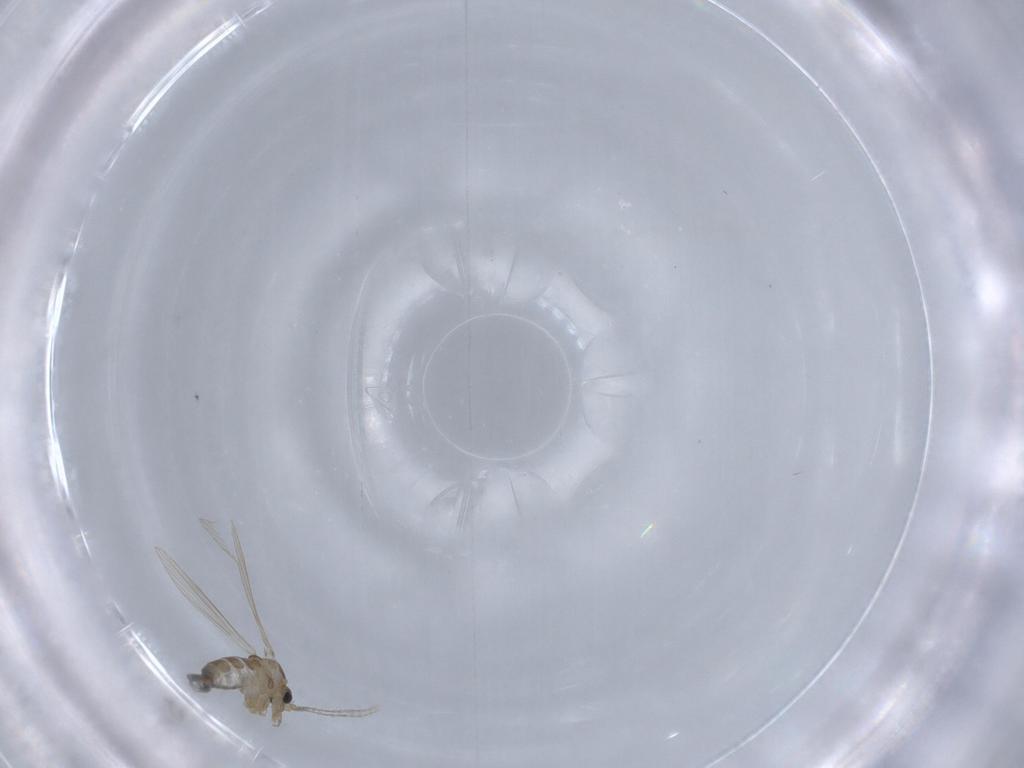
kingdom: Animalia
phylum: Arthropoda
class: Insecta
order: Diptera
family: Psychodidae
